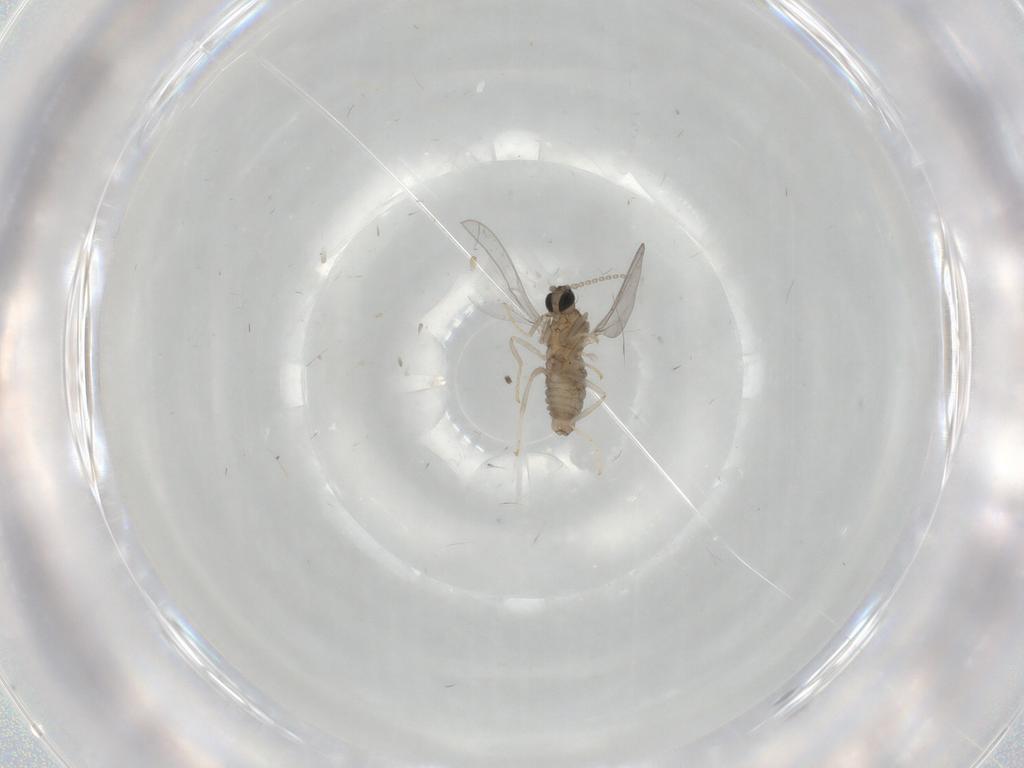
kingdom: Animalia
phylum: Arthropoda
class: Insecta
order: Diptera
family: Cecidomyiidae
